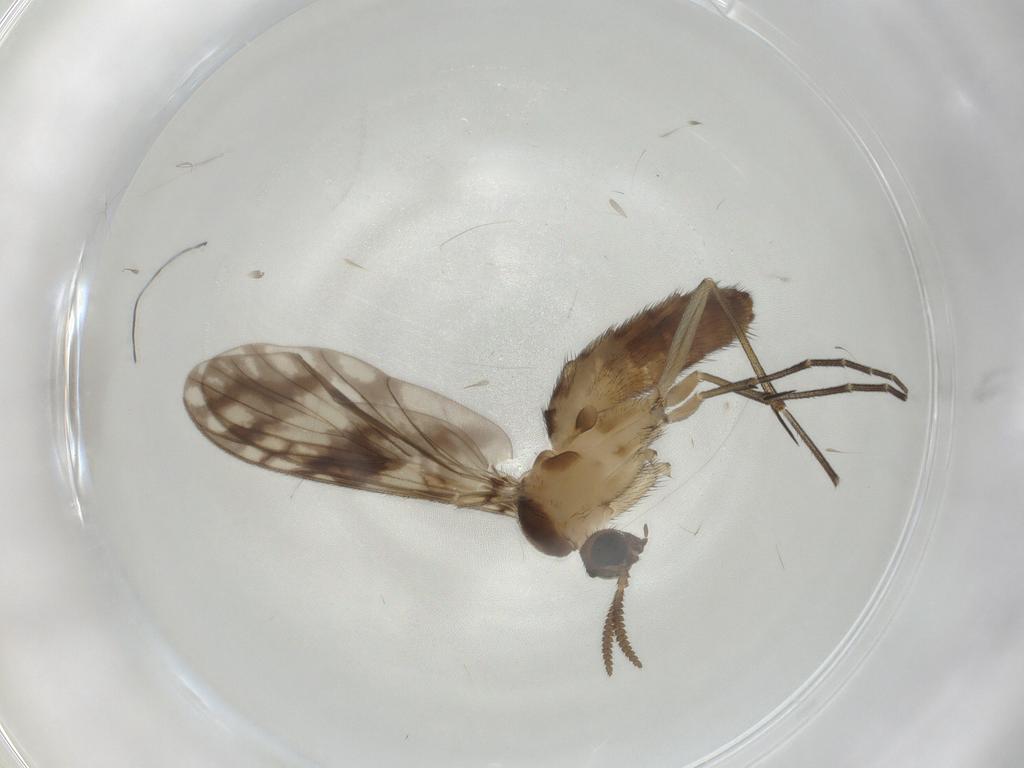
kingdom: Animalia
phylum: Arthropoda
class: Insecta
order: Diptera
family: Keroplatidae
